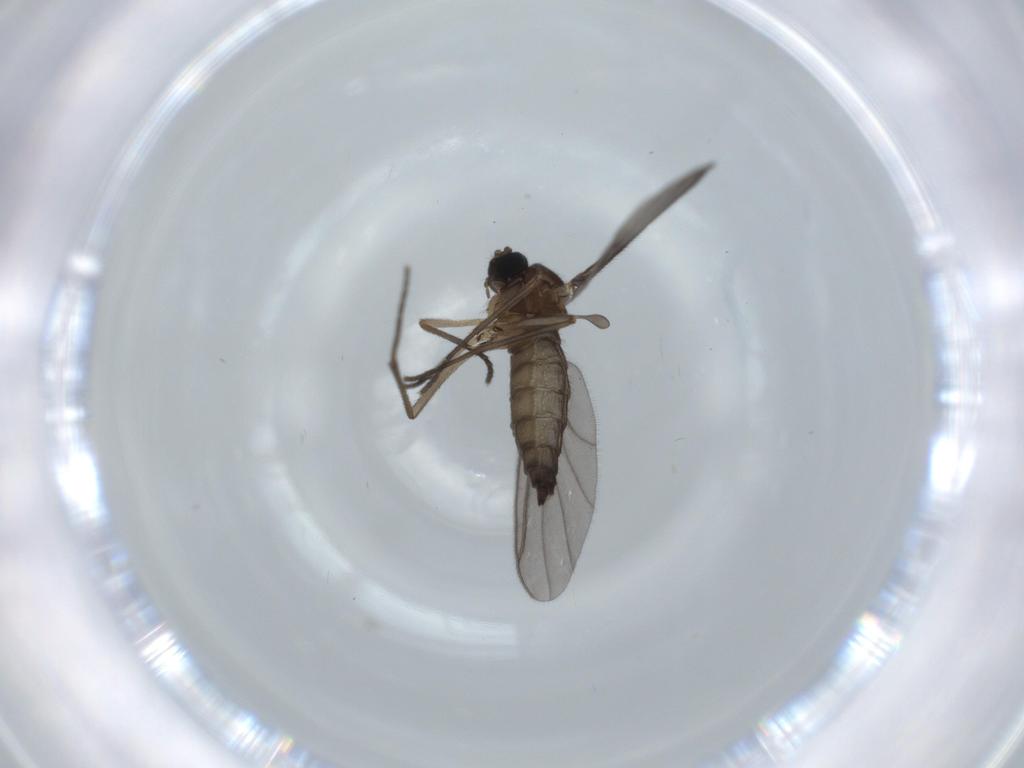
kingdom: Animalia
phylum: Arthropoda
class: Insecta
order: Diptera
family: Sciaridae
